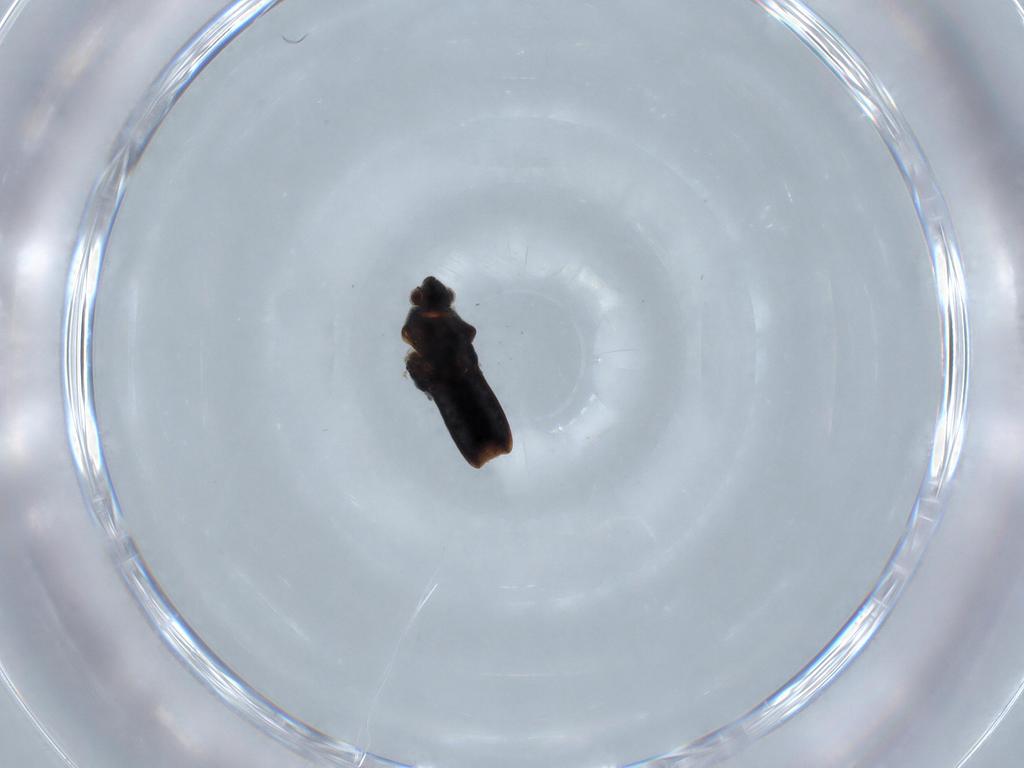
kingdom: Animalia
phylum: Arthropoda
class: Insecta
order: Hemiptera
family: Veliidae
